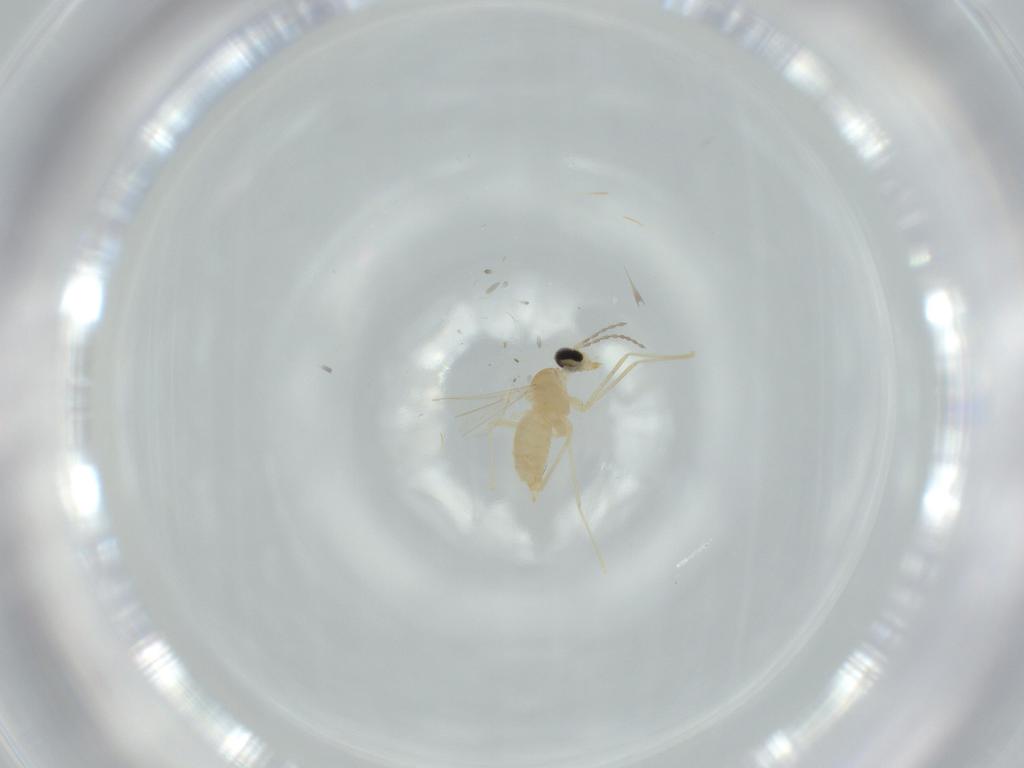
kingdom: Animalia
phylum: Arthropoda
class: Insecta
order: Diptera
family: Cecidomyiidae
